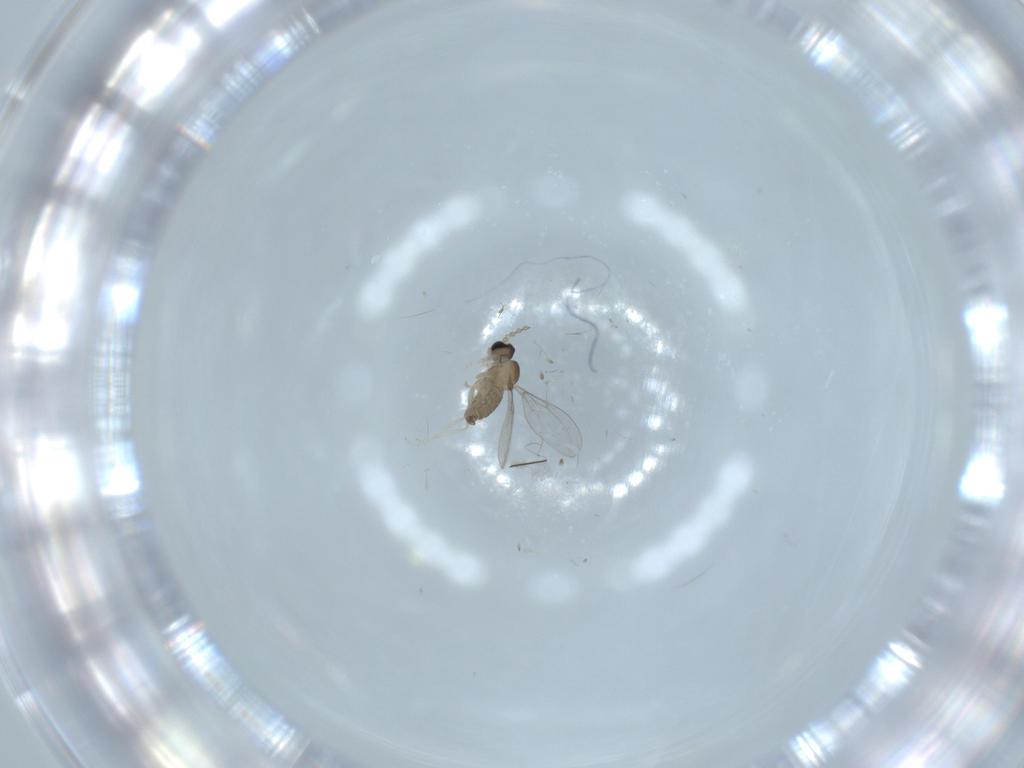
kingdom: Animalia
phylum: Arthropoda
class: Insecta
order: Diptera
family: Cecidomyiidae
